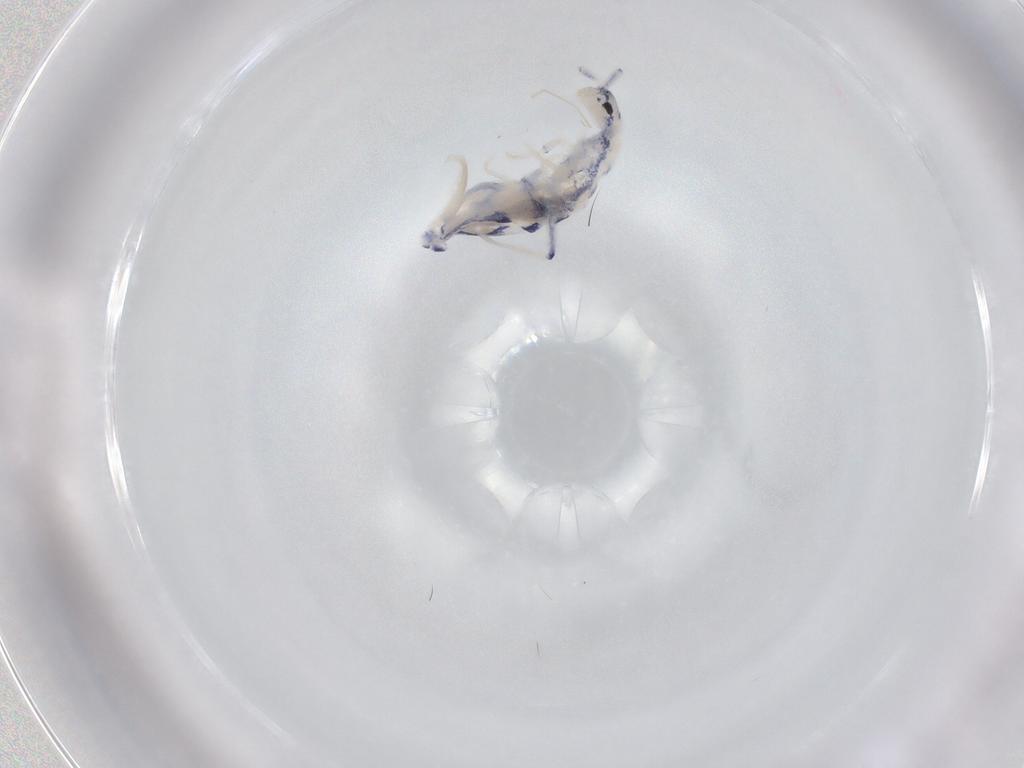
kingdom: Animalia
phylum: Arthropoda
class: Collembola
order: Entomobryomorpha
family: Entomobryidae
